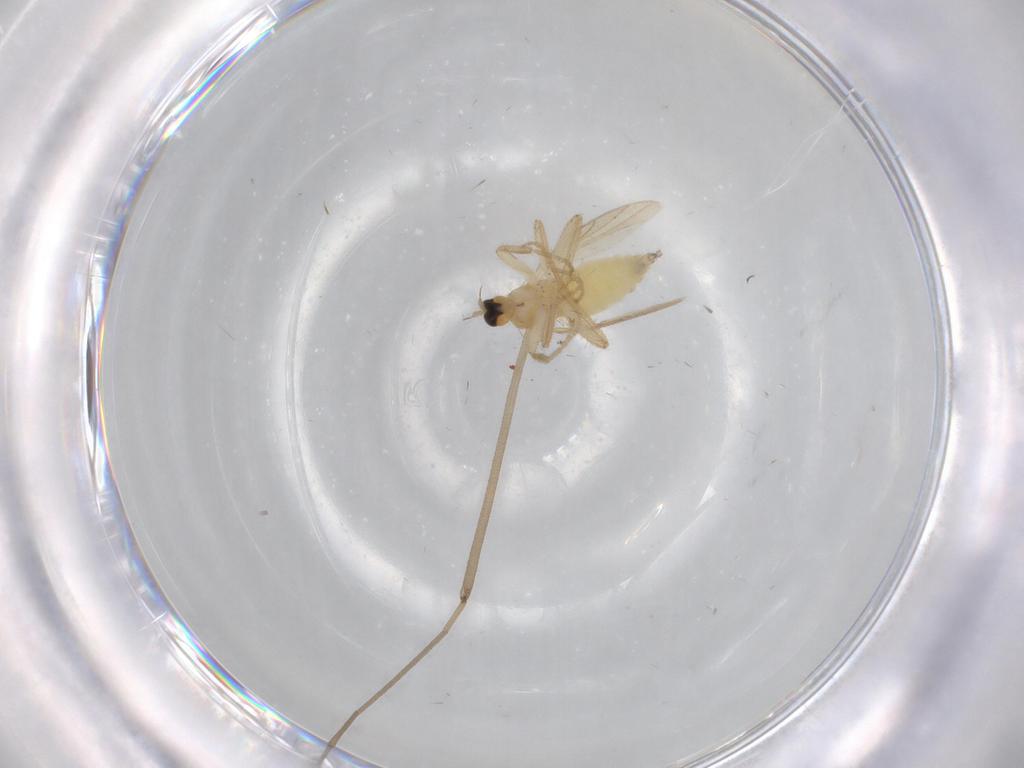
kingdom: Animalia
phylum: Arthropoda
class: Insecta
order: Diptera
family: Hybotidae
